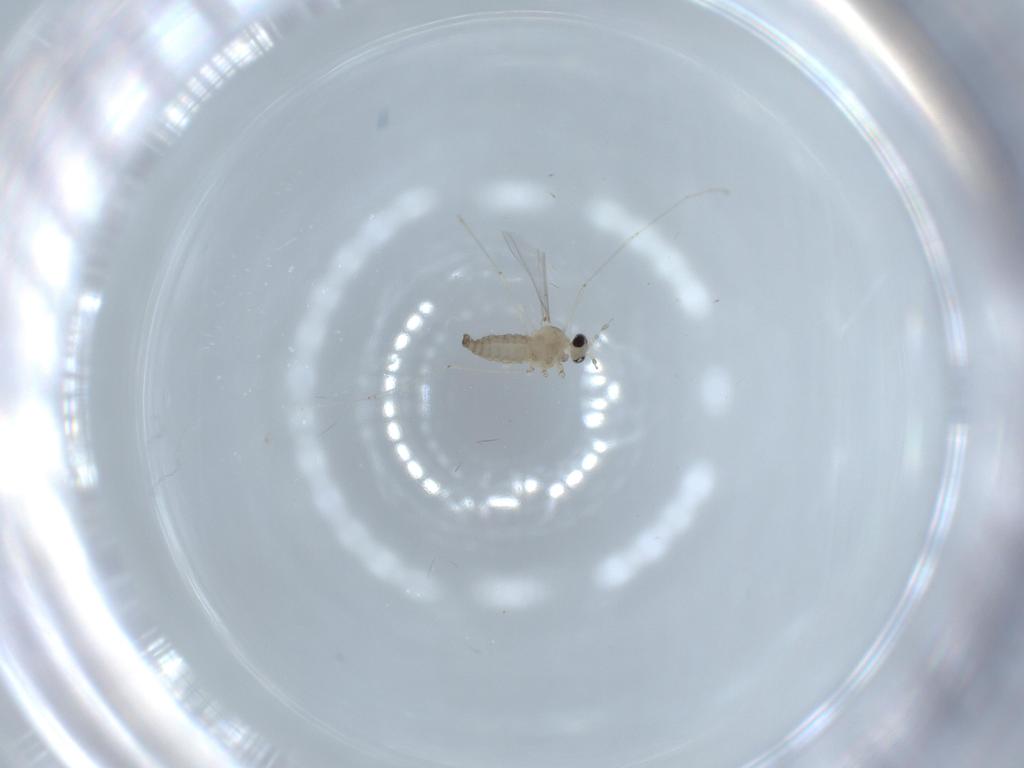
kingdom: Animalia
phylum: Arthropoda
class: Insecta
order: Diptera
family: Cecidomyiidae
